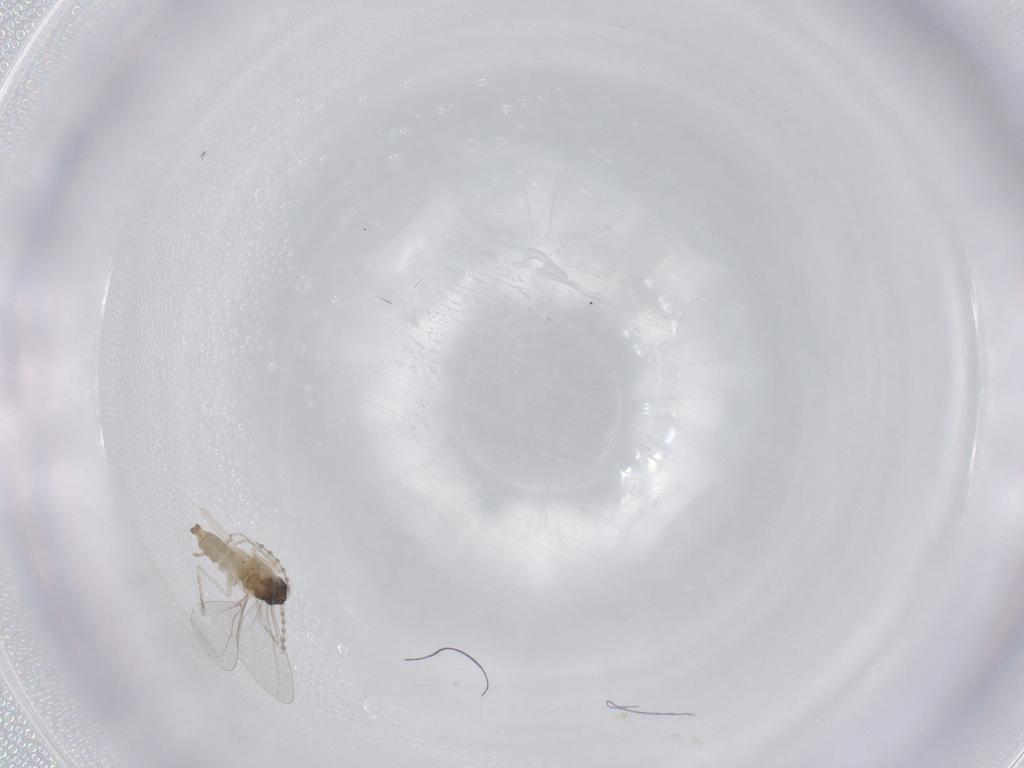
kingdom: Animalia
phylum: Arthropoda
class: Insecta
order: Diptera
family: Cecidomyiidae
